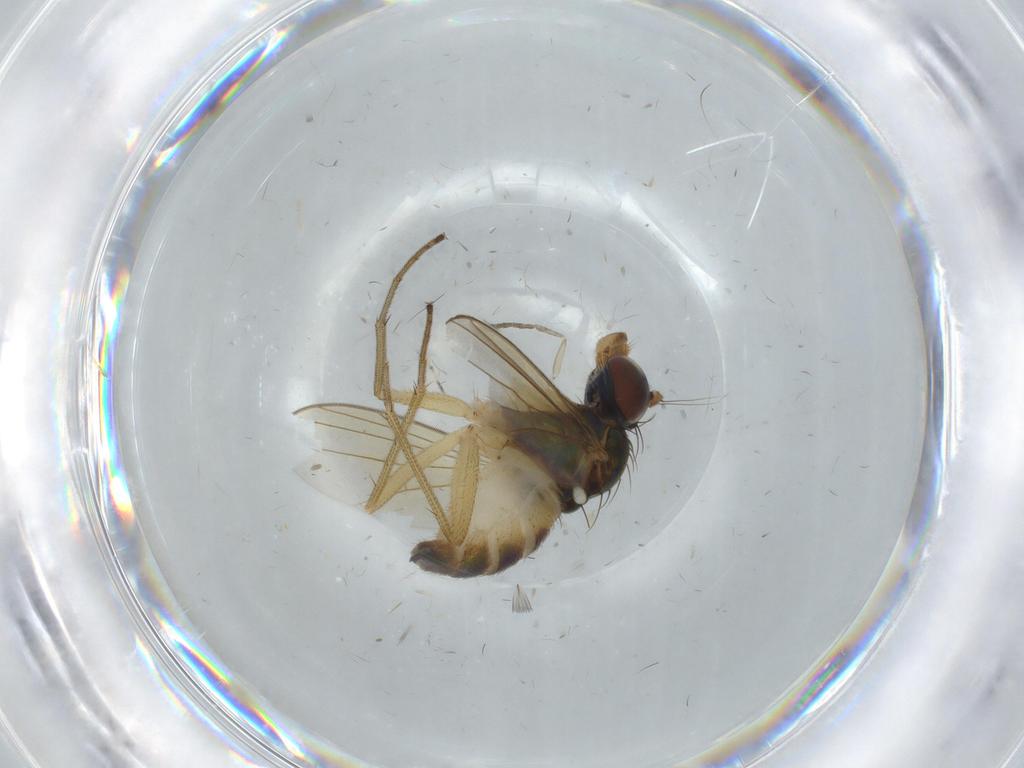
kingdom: Animalia
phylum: Arthropoda
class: Insecta
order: Diptera
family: Dolichopodidae
